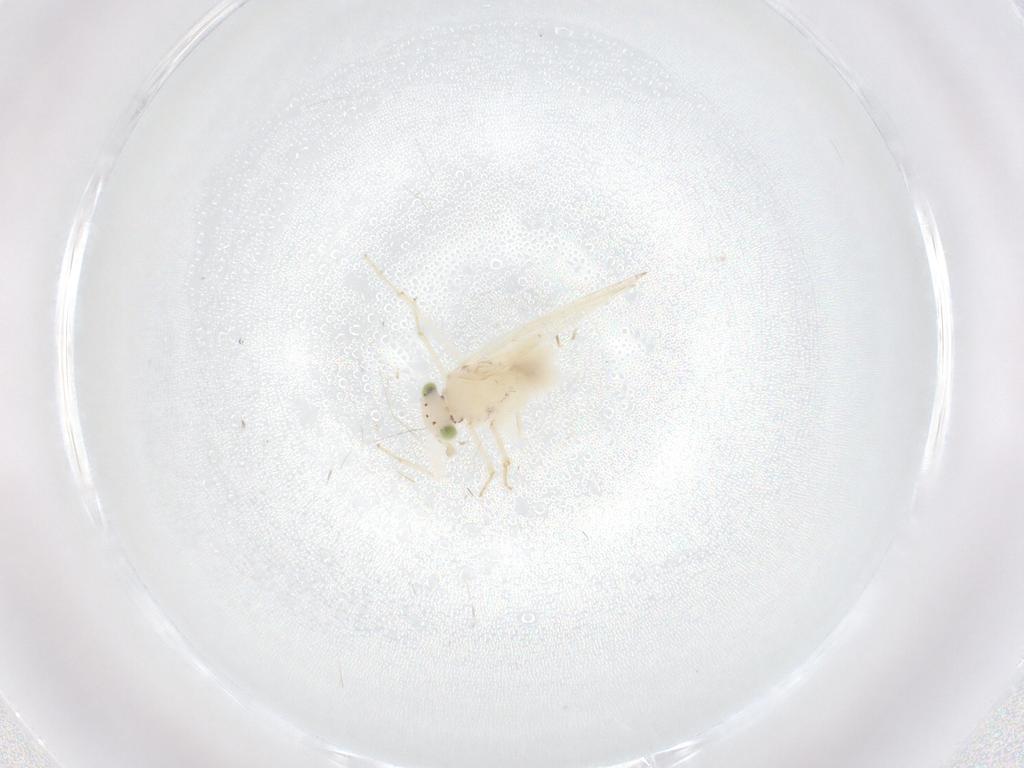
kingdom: Animalia
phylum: Arthropoda
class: Insecta
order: Psocodea
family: Lepidopsocidae
